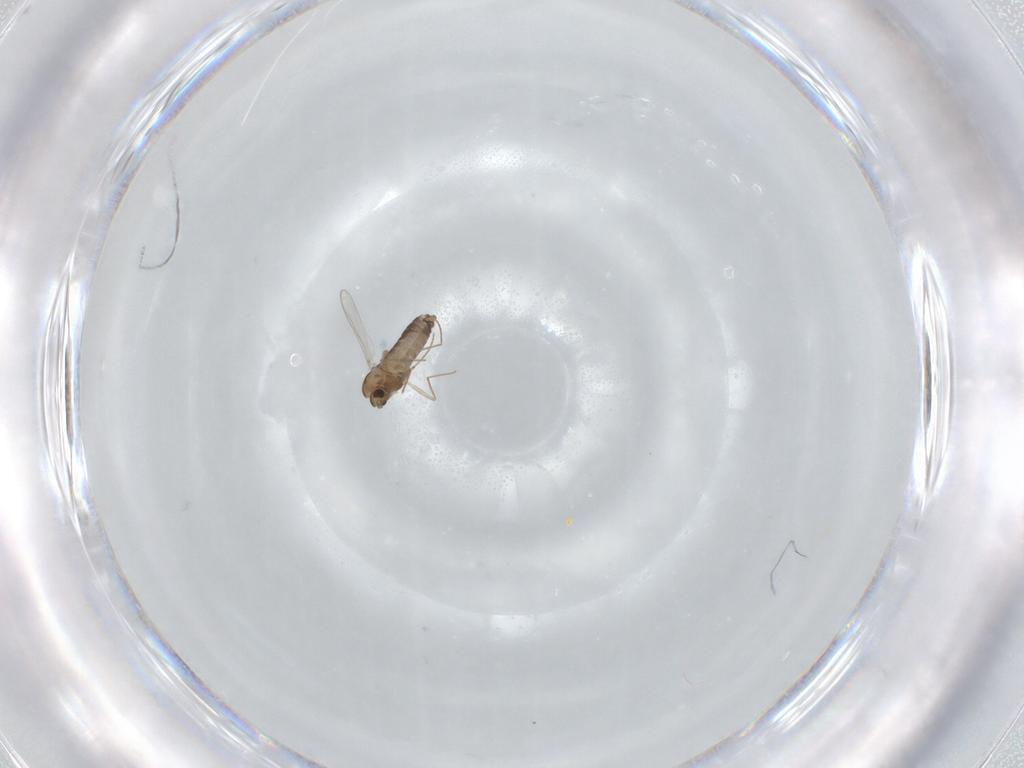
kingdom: Animalia
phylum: Arthropoda
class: Insecta
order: Diptera
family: Chironomidae
